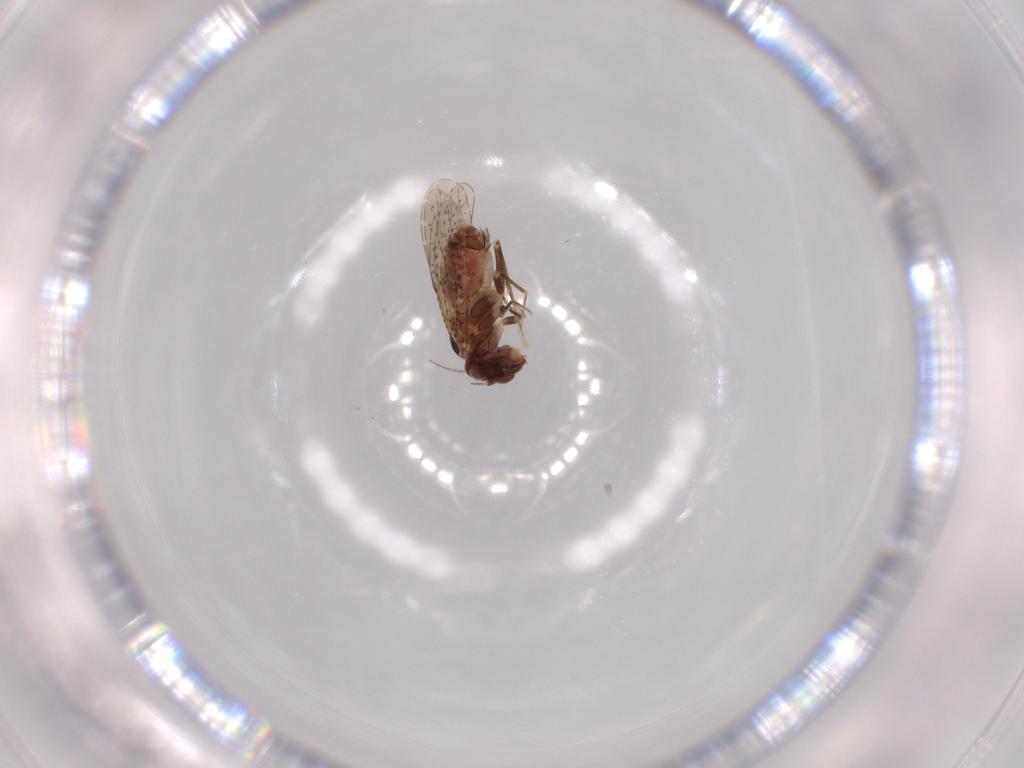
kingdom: Animalia
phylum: Arthropoda
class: Insecta
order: Psocodea
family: Musapsocidae
